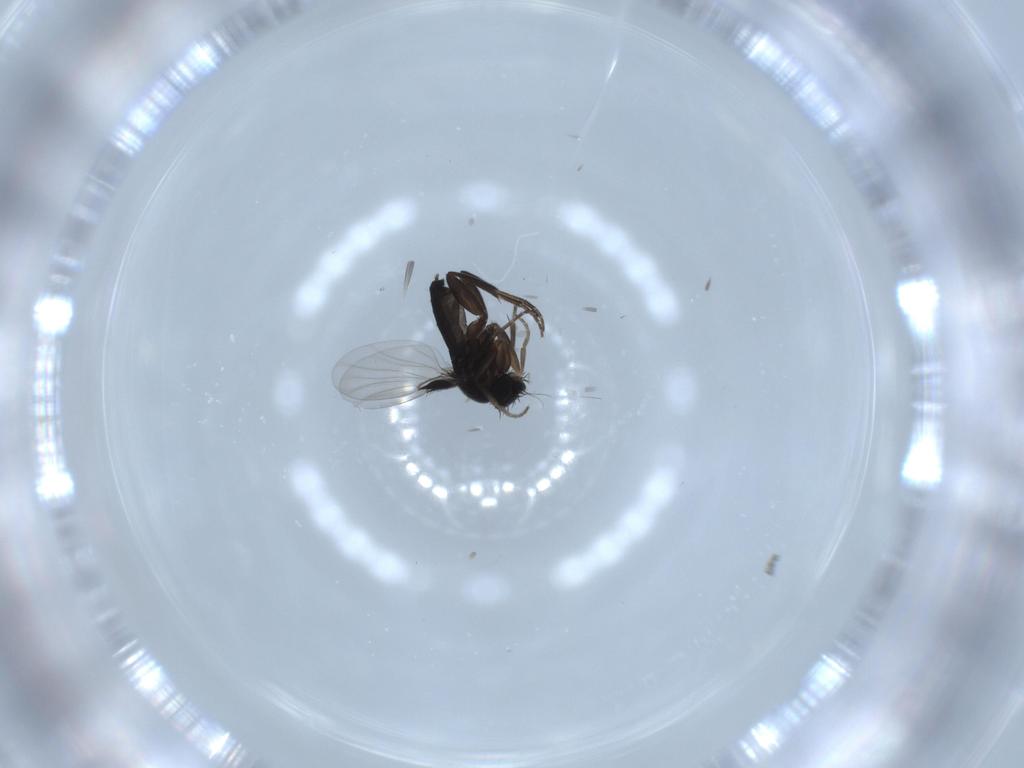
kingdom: Animalia
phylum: Arthropoda
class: Insecta
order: Diptera
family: Phoridae
